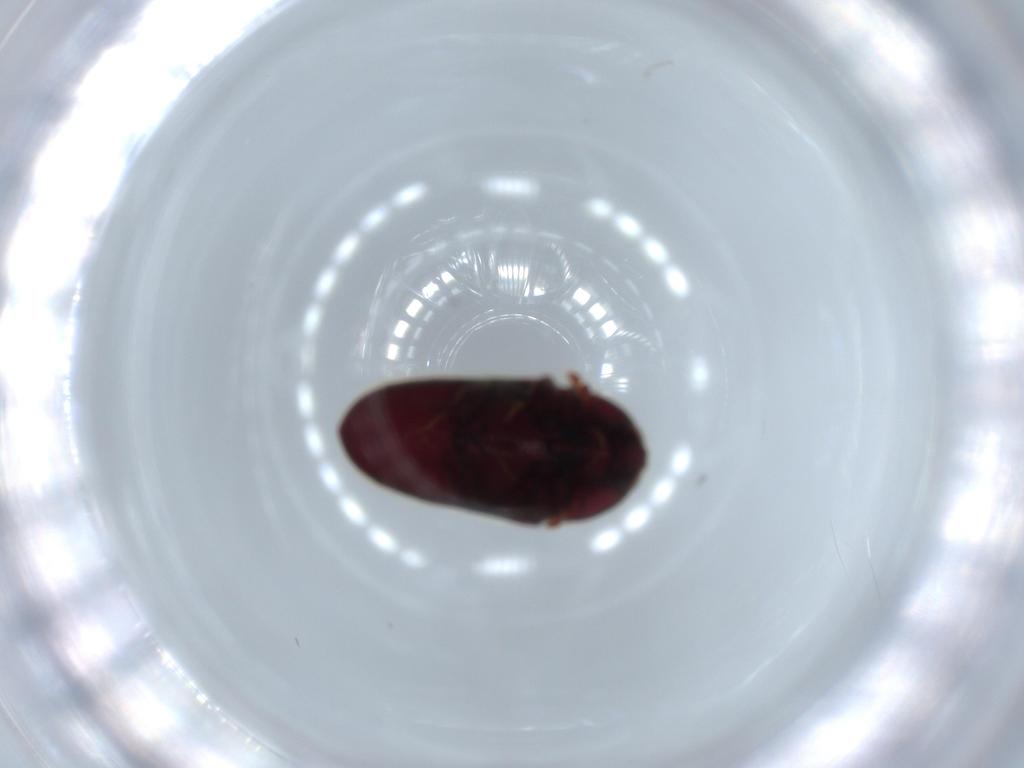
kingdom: Animalia
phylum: Arthropoda
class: Insecta
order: Coleoptera
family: Throscidae
